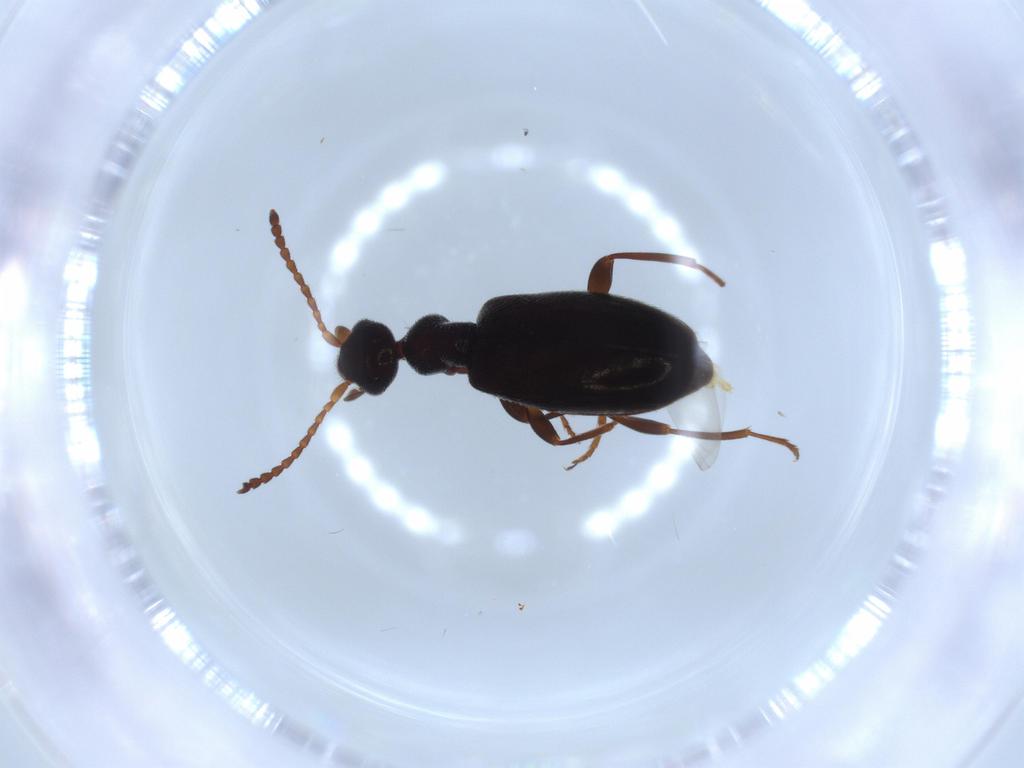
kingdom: Animalia
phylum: Arthropoda
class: Insecta
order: Coleoptera
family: Anthicidae
